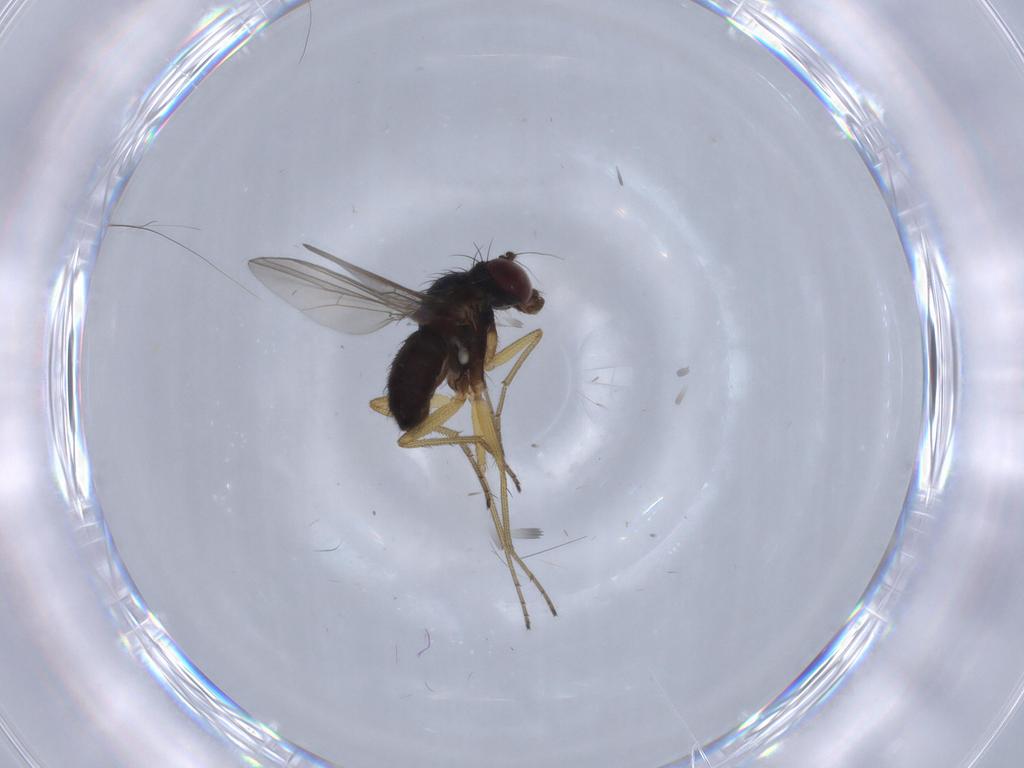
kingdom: Animalia
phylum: Arthropoda
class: Insecta
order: Diptera
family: Dolichopodidae
